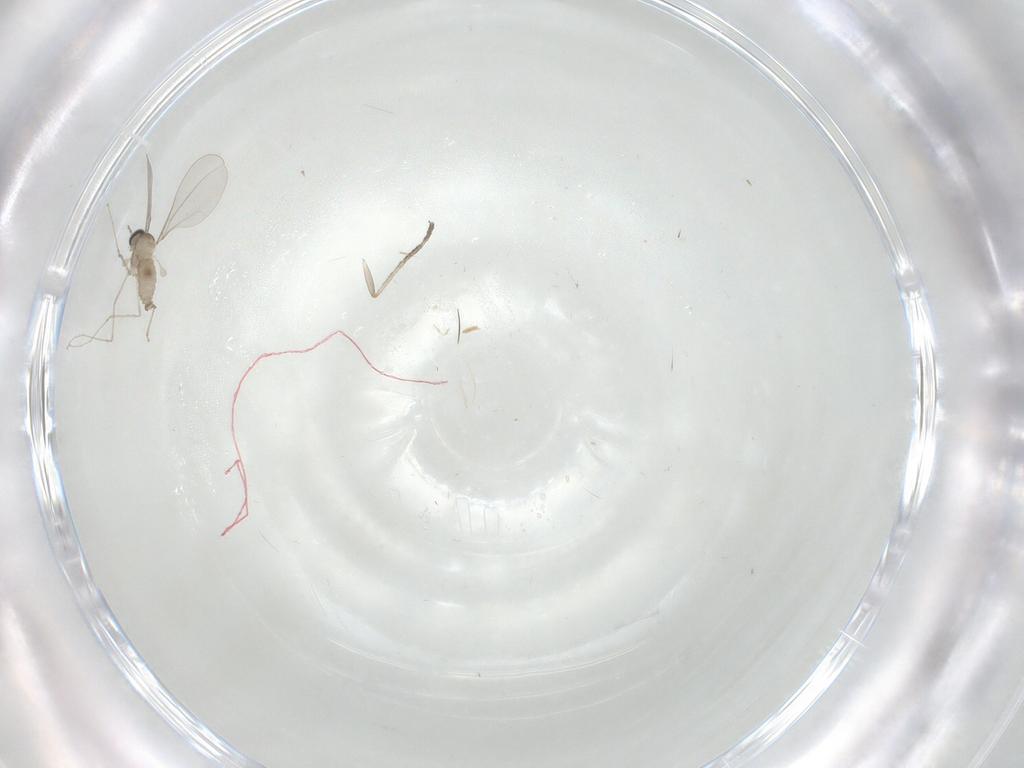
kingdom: Animalia
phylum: Arthropoda
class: Insecta
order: Diptera
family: Cecidomyiidae
